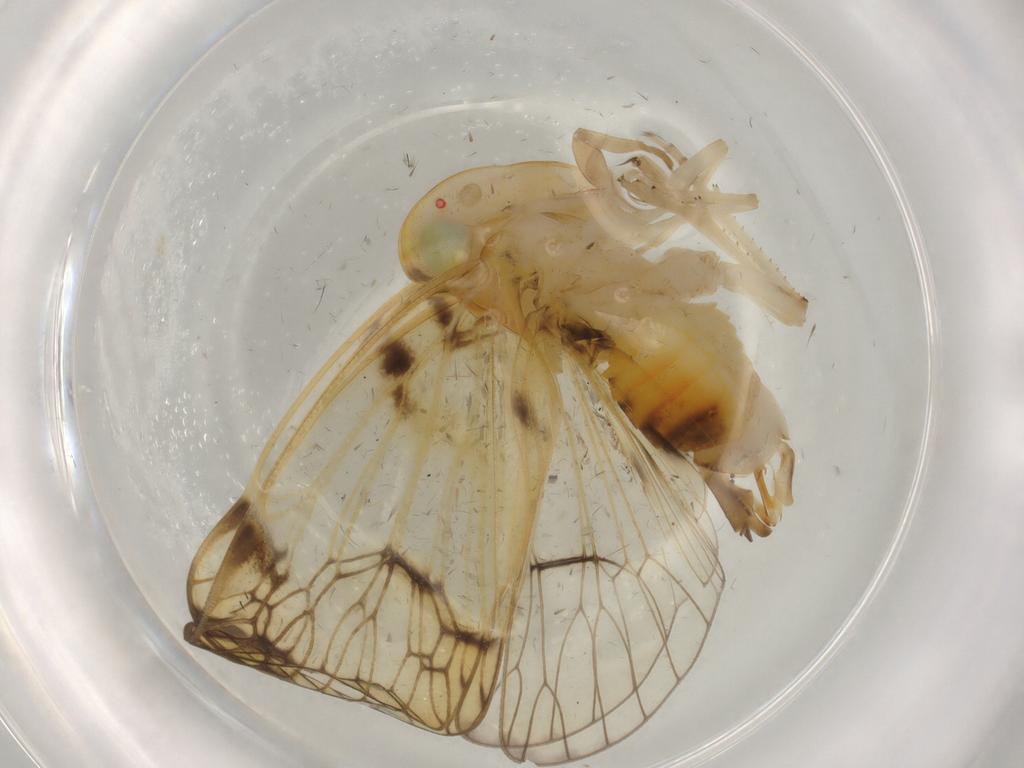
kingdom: Animalia
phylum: Arthropoda
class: Insecta
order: Hemiptera
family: Cixiidae
